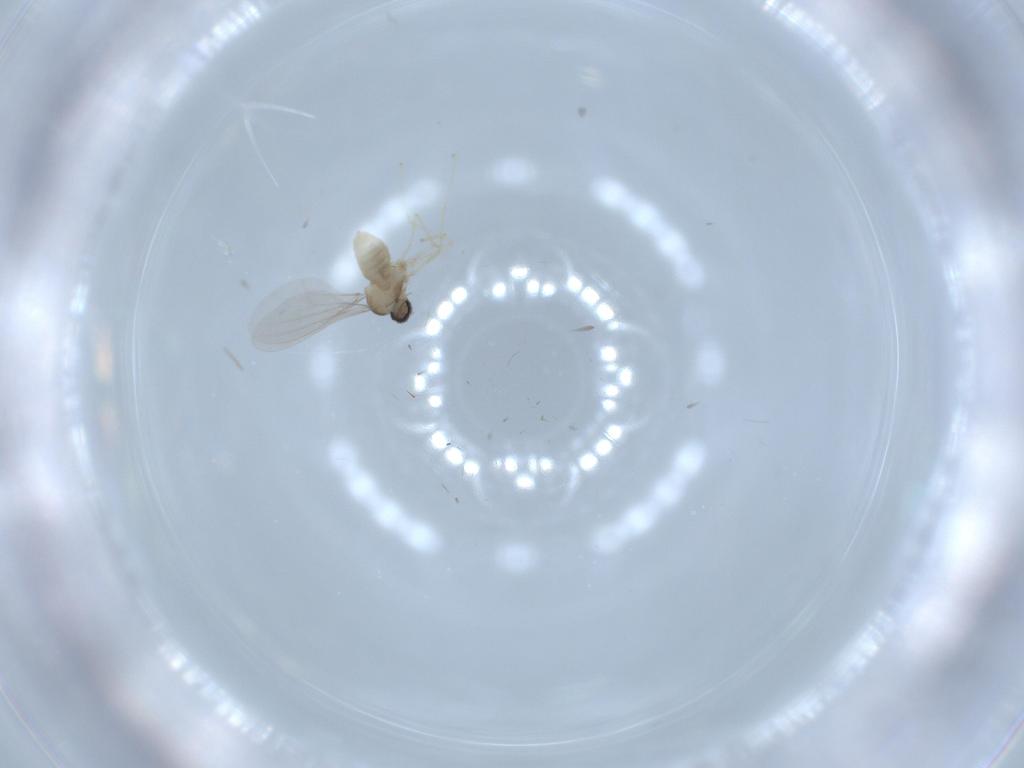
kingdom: Animalia
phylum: Arthropoda
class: Insecta
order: Diptera
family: Cecidomyiidae
